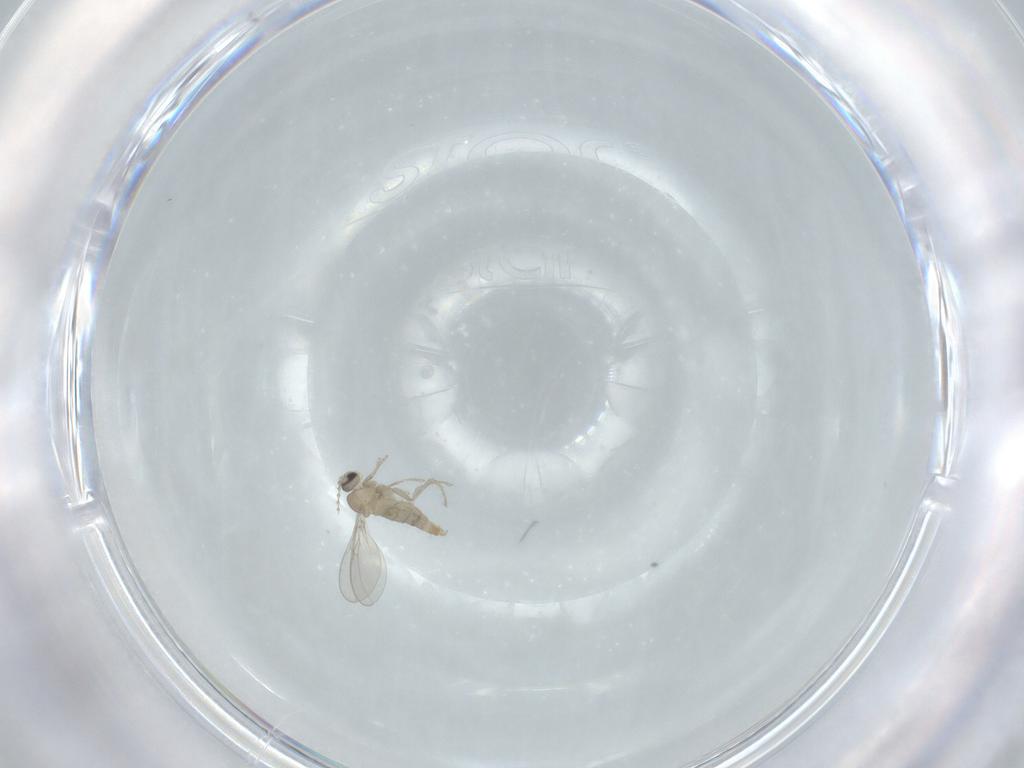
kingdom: Animalia
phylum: Arthropoda
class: Insecta
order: Diptera
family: Cecidomyiidae
